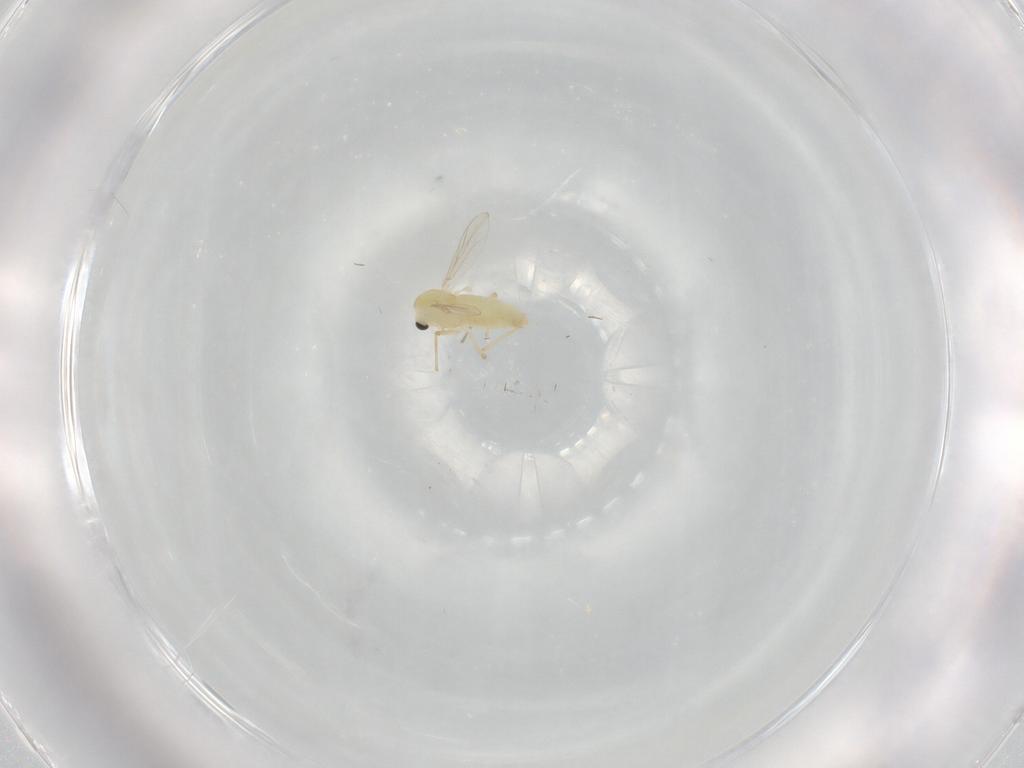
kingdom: Animalia
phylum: Arthropoda
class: Insecta
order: Diptera
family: Chironomidae
